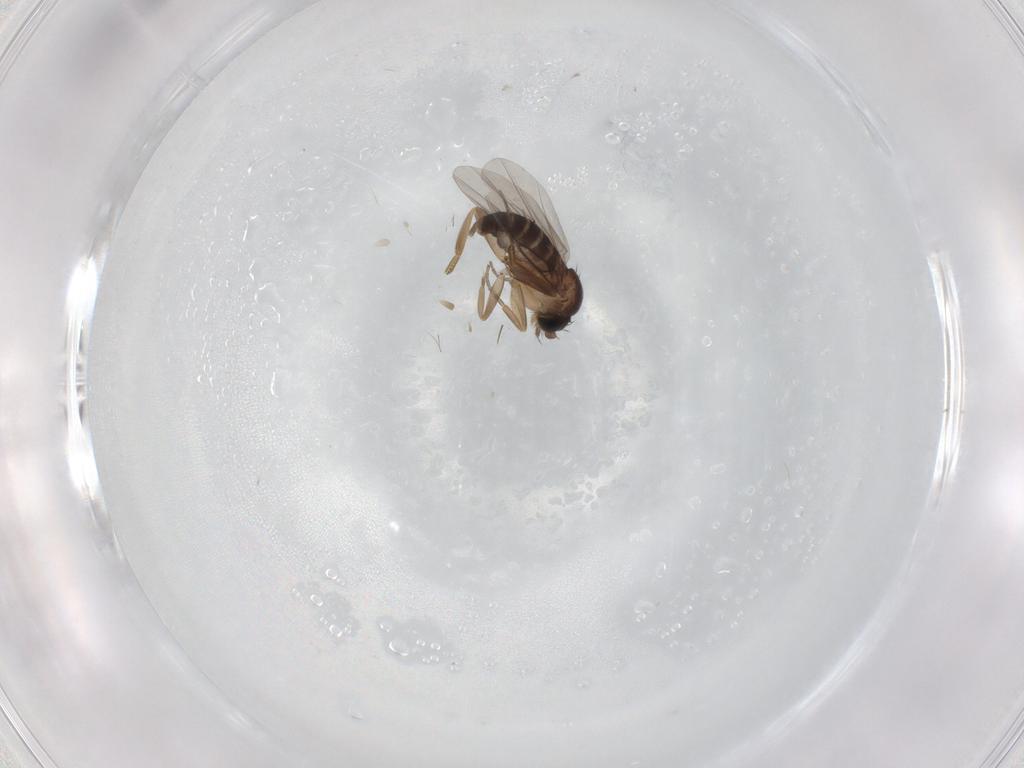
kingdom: Animalia
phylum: Arthropoda
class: Insecta
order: Diptera
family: Phoridae
